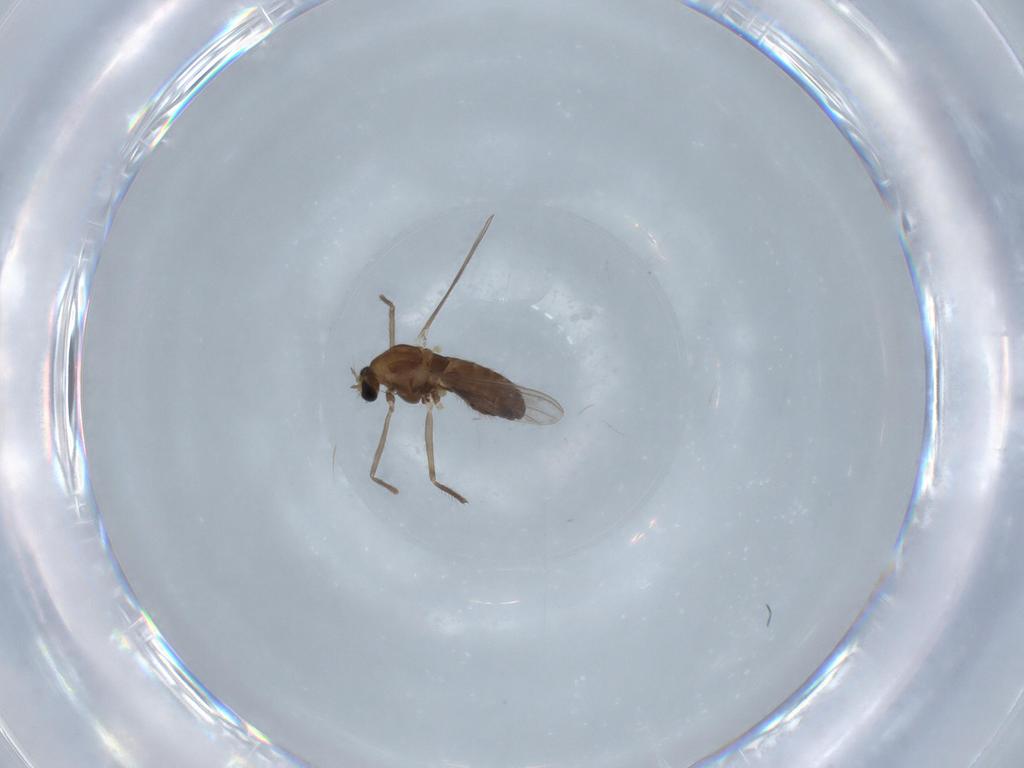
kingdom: Animalia
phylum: Arthropoda
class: Insecta
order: Diptera
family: Chironomidae
